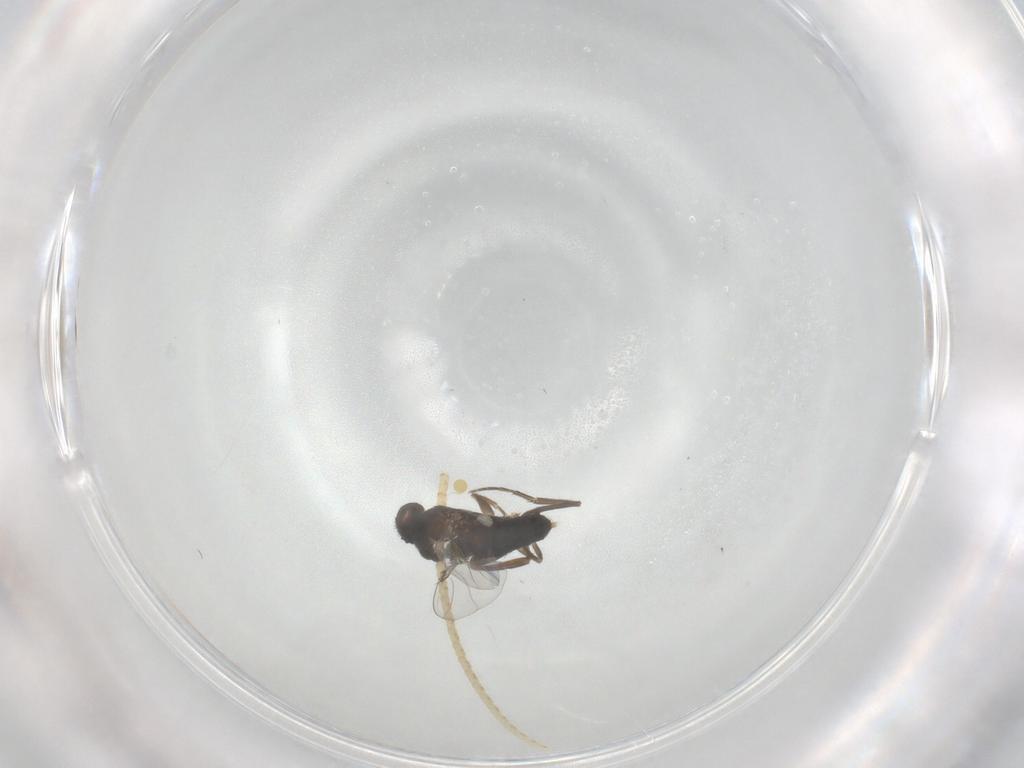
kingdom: Animalia
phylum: Arthropoda
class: Insecta
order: Diptera
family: Phoridae
